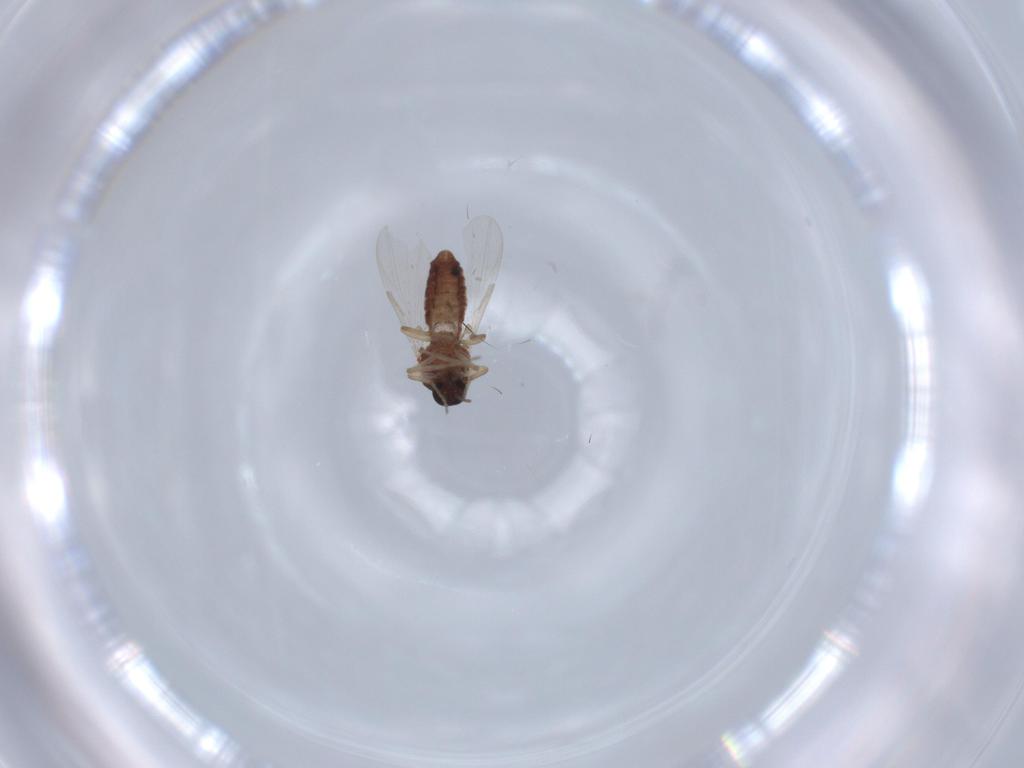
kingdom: Animalia
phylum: Arthropoda
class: Insecta
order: Diptera
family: Ceratopogonidae
